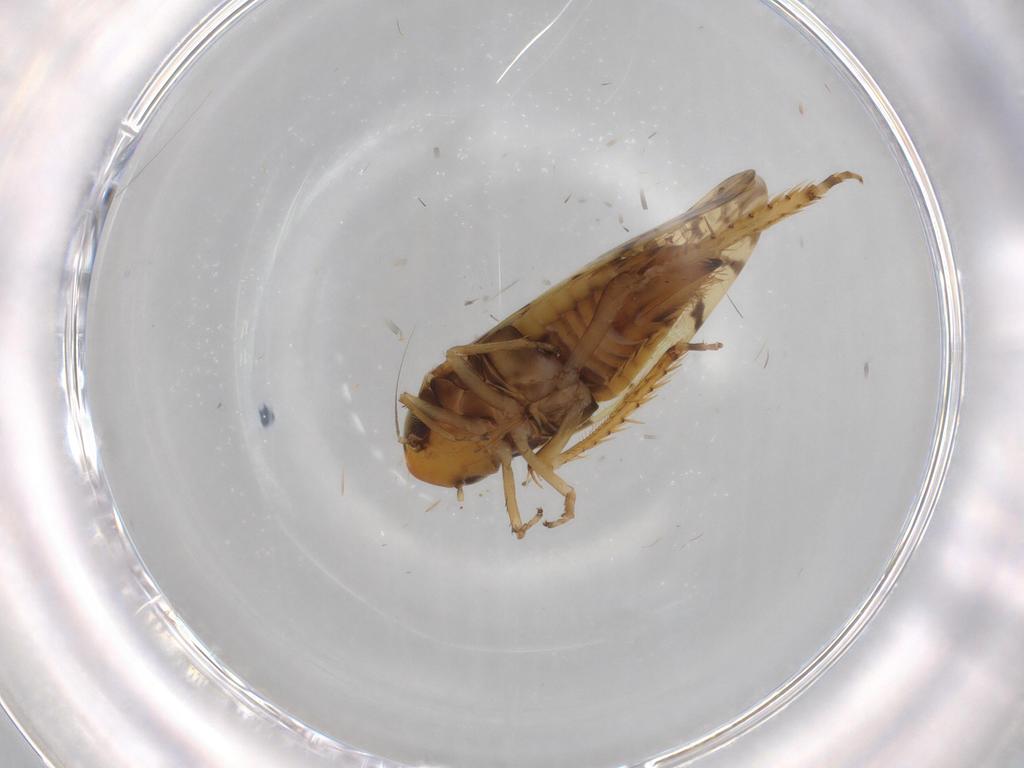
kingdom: Animalia
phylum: Arthropoda
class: Insecta
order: Hemiptera
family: Cicadellidae
